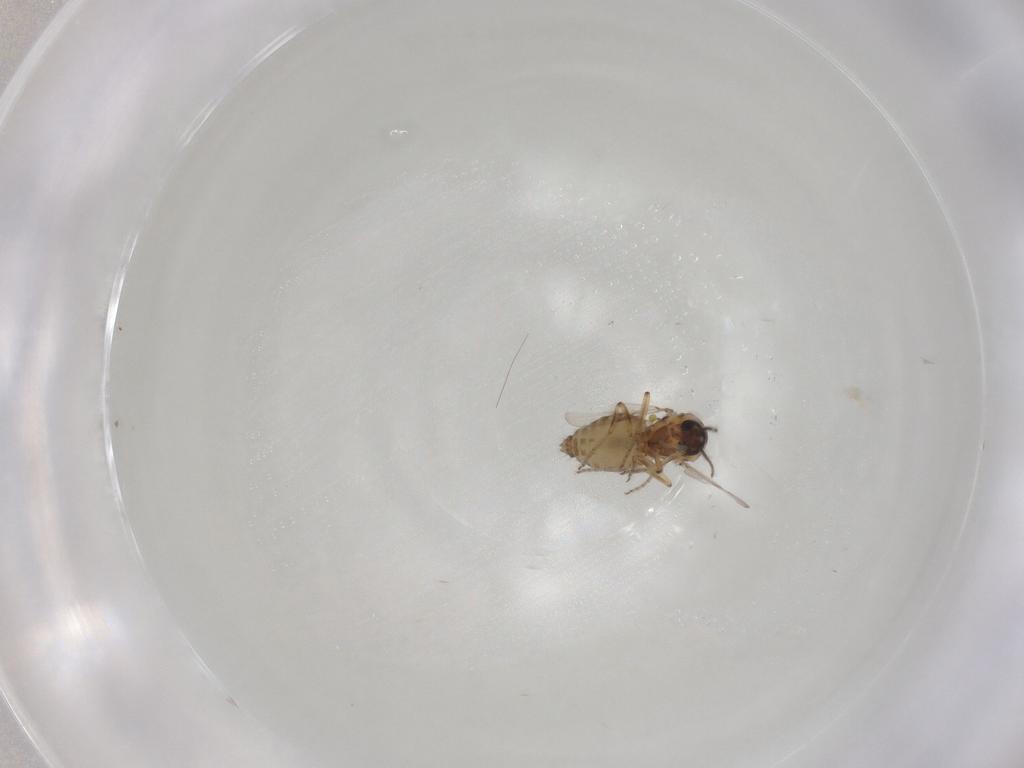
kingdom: Animalia
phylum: Arthropoda
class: Insecta
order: Diptera
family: Ceratopogonidae
